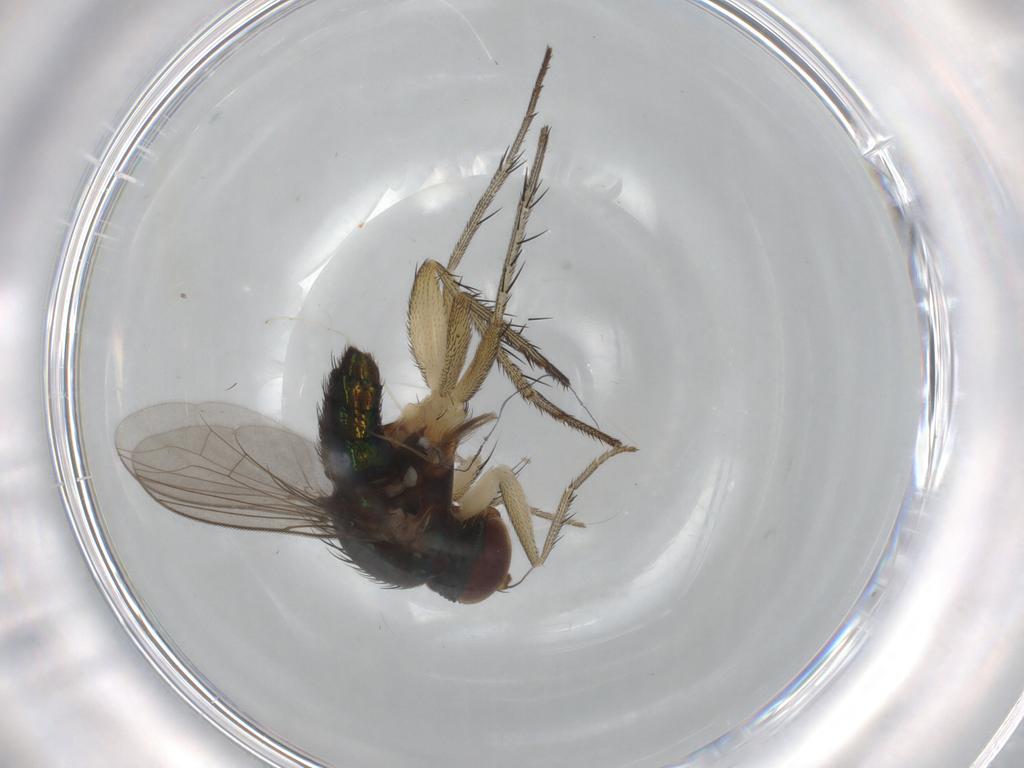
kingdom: Animalia
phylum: Arthropoda
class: Insecta
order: Diptera
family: Dolichopodidae
